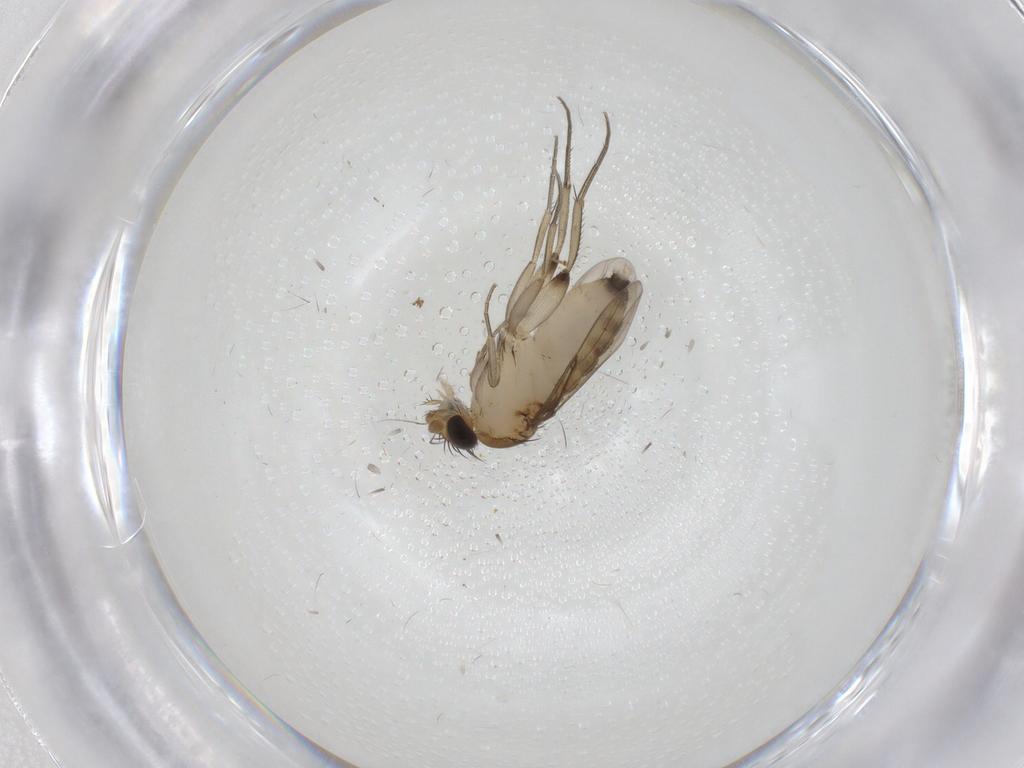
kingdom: Animalia
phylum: Arthropoda
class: Insecta
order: Diptera
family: Phoridae
